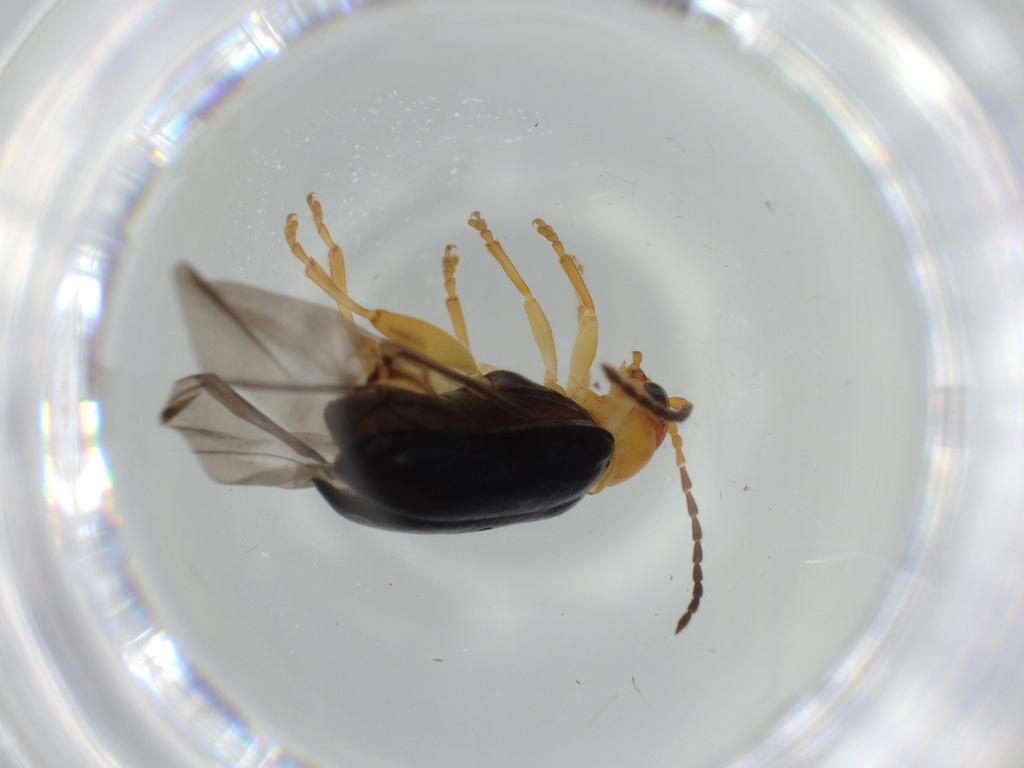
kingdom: Animalia
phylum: Arthropoda
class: Insecta
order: Coleoptera
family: Chrysomelidae
